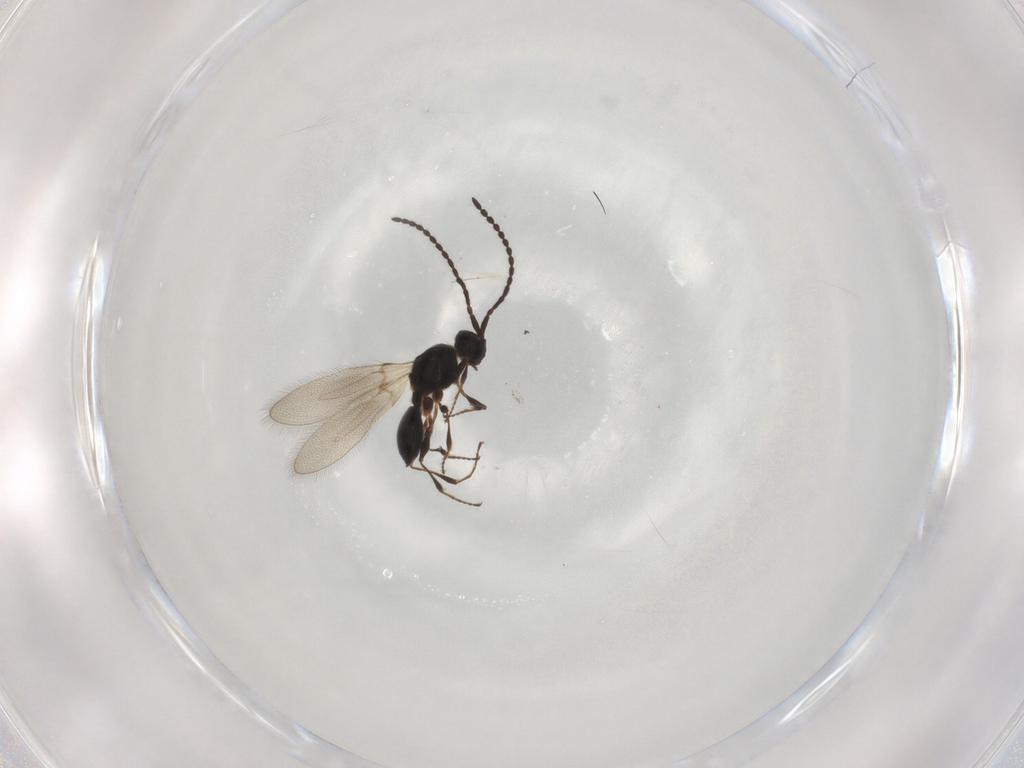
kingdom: Animalia
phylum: Arthropoda
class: Insecta
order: Hymenoptera
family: Diapriidae
